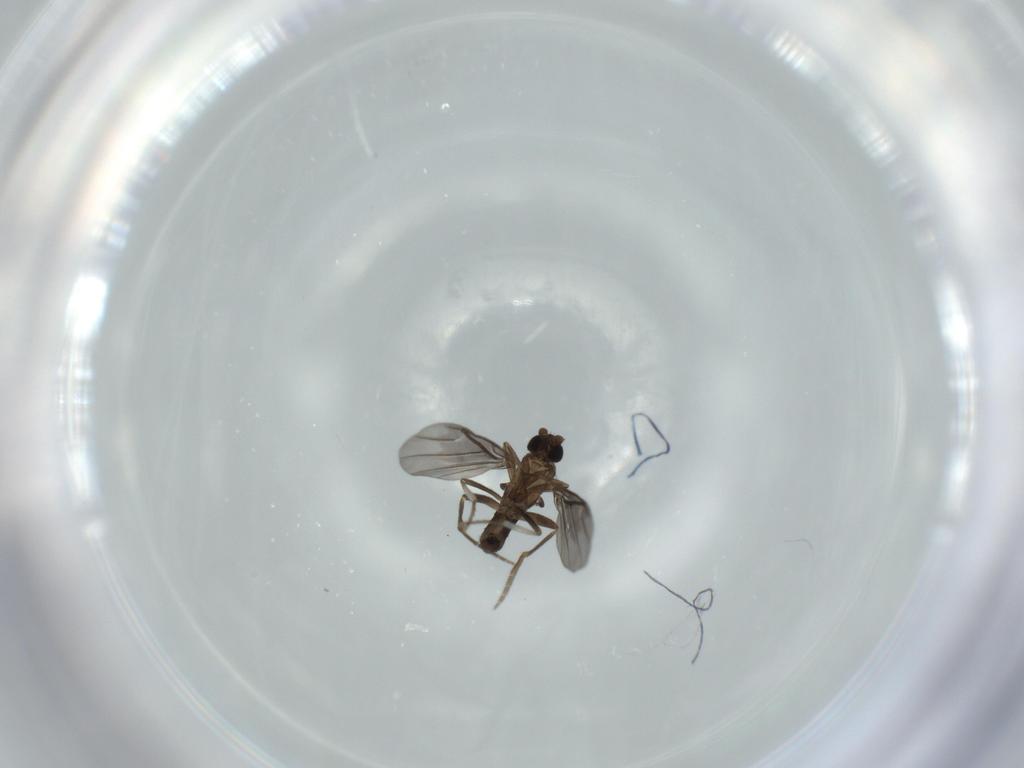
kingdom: Animalia
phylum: Arthropoda
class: Insecta
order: Diptera
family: Phoridae
